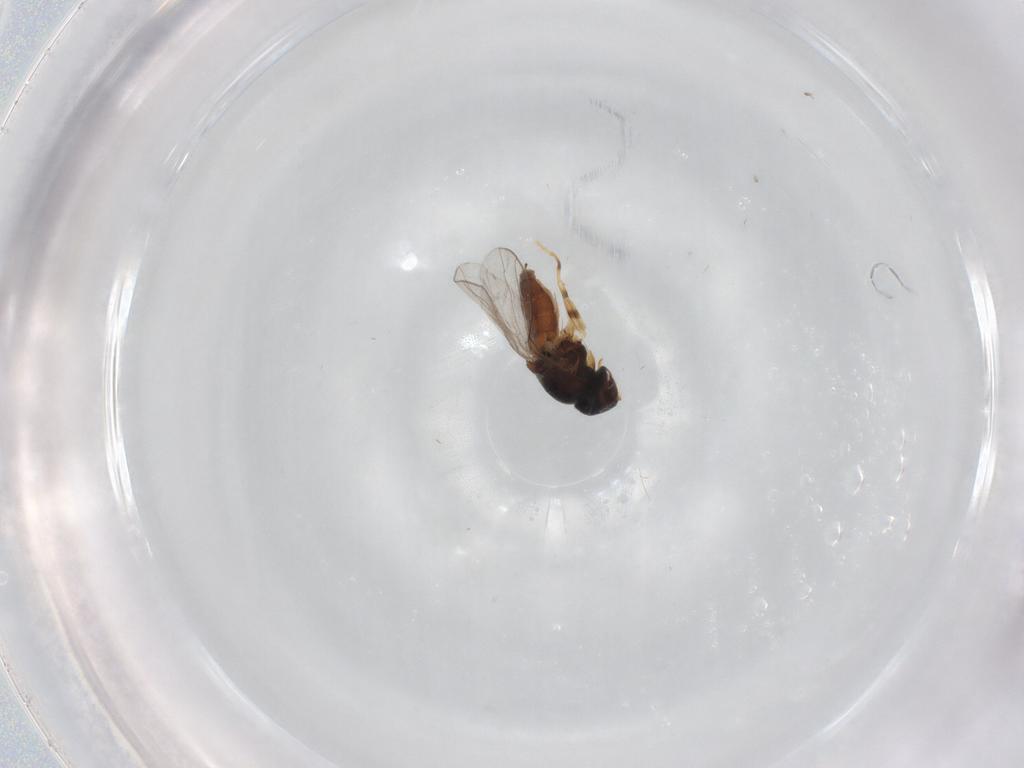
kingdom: Animalia
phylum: Arthropoda
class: Insecta
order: Diptera
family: Chloropidae
